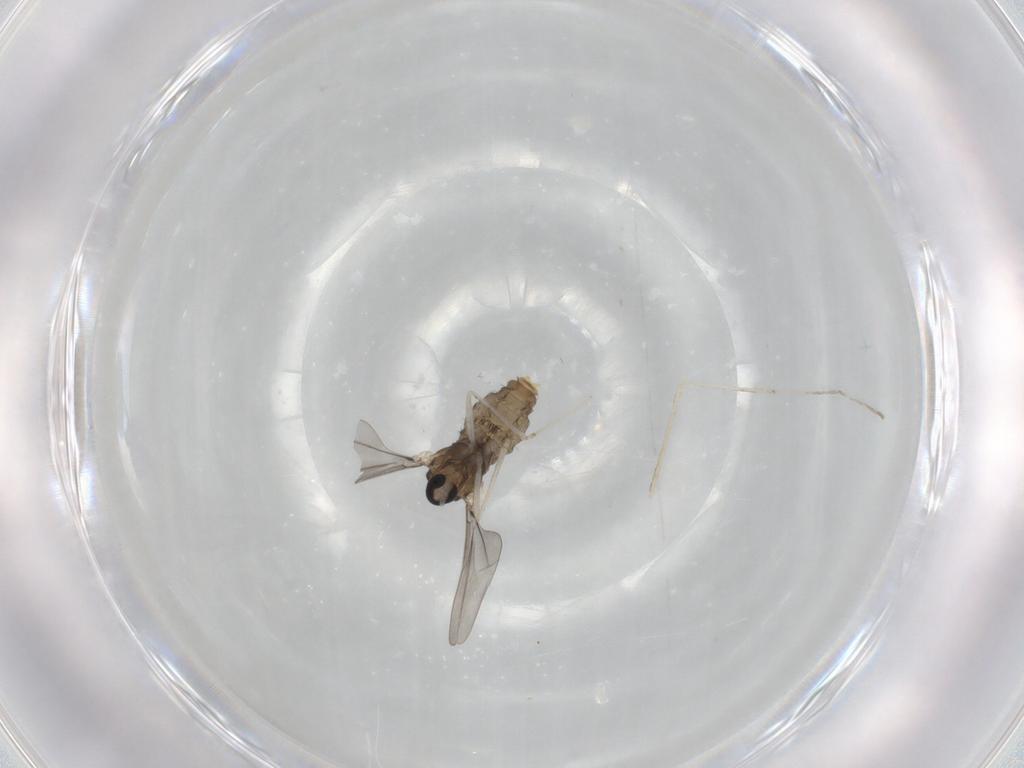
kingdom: Animalia
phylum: Arthropoda
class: Insecta
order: Diptera
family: Cecidomyiidae
